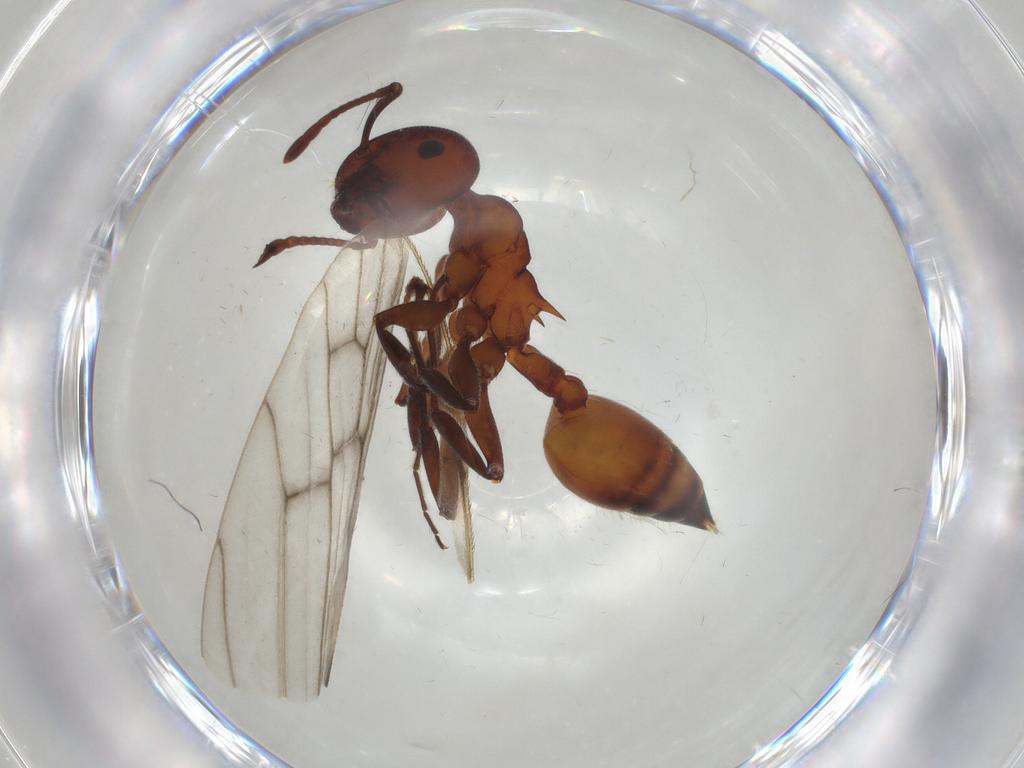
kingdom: Animalia
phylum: Arthropoda
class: Insecta
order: Hymenoptera
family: Formicidae
